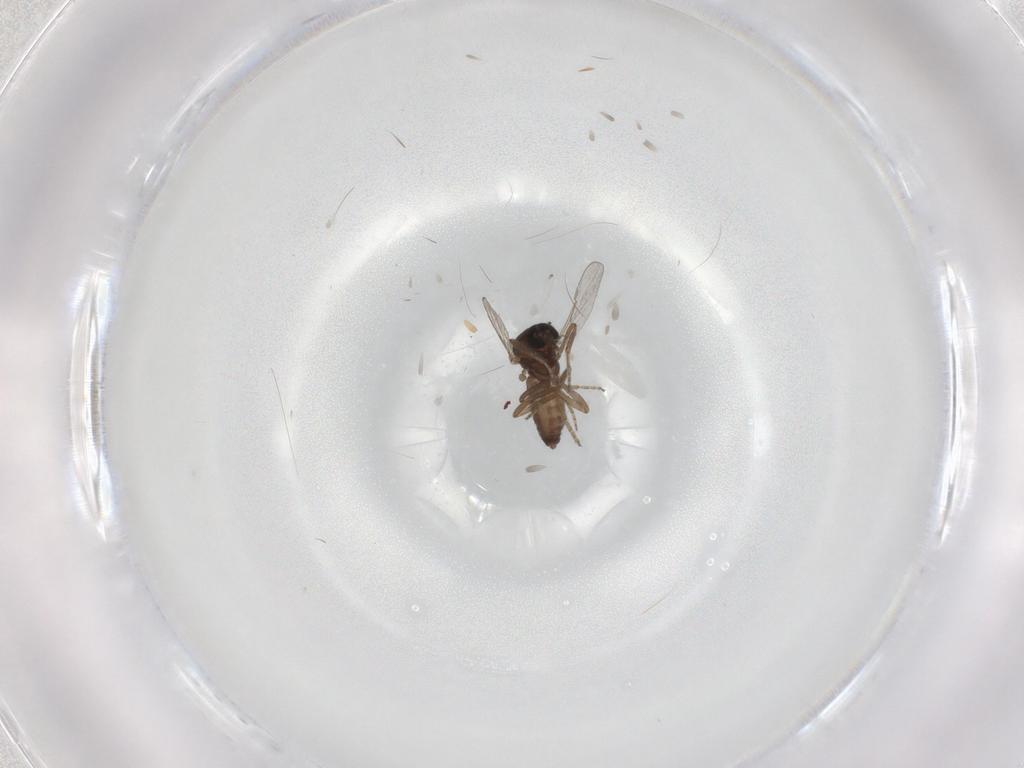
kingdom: Animalia
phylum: Arthropoda
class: Insecta
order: Diptera
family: Ceratopogonidae
